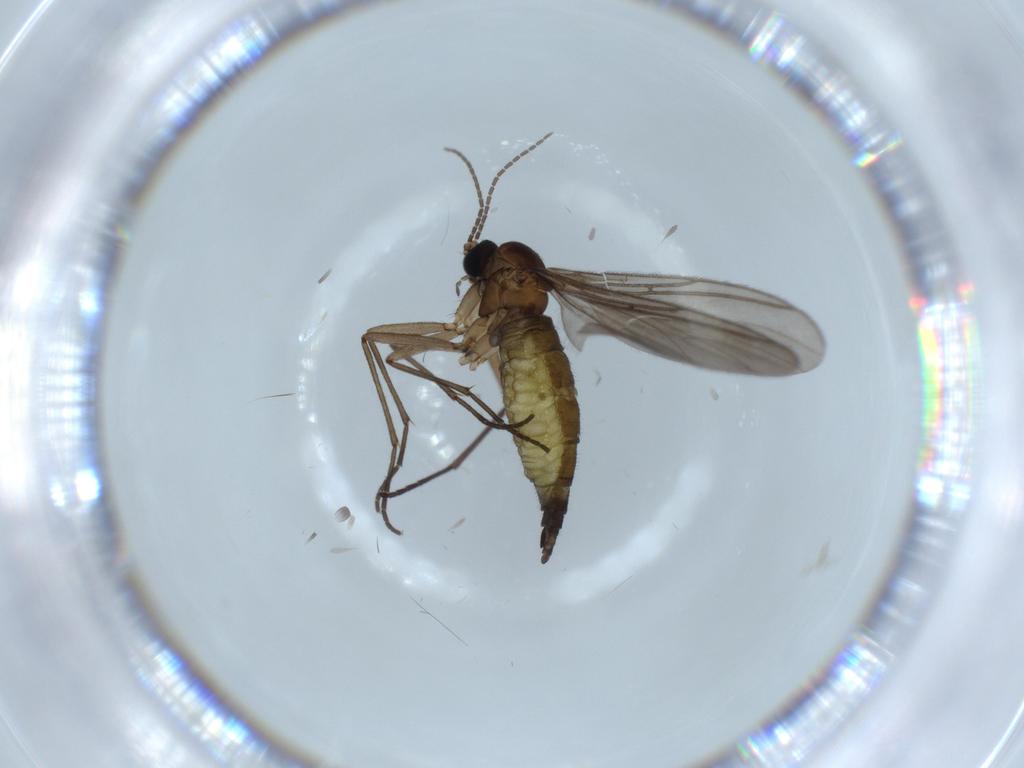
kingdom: Animalia
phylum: Arthropoda
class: Insecta
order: Diptera
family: Sciaridae
